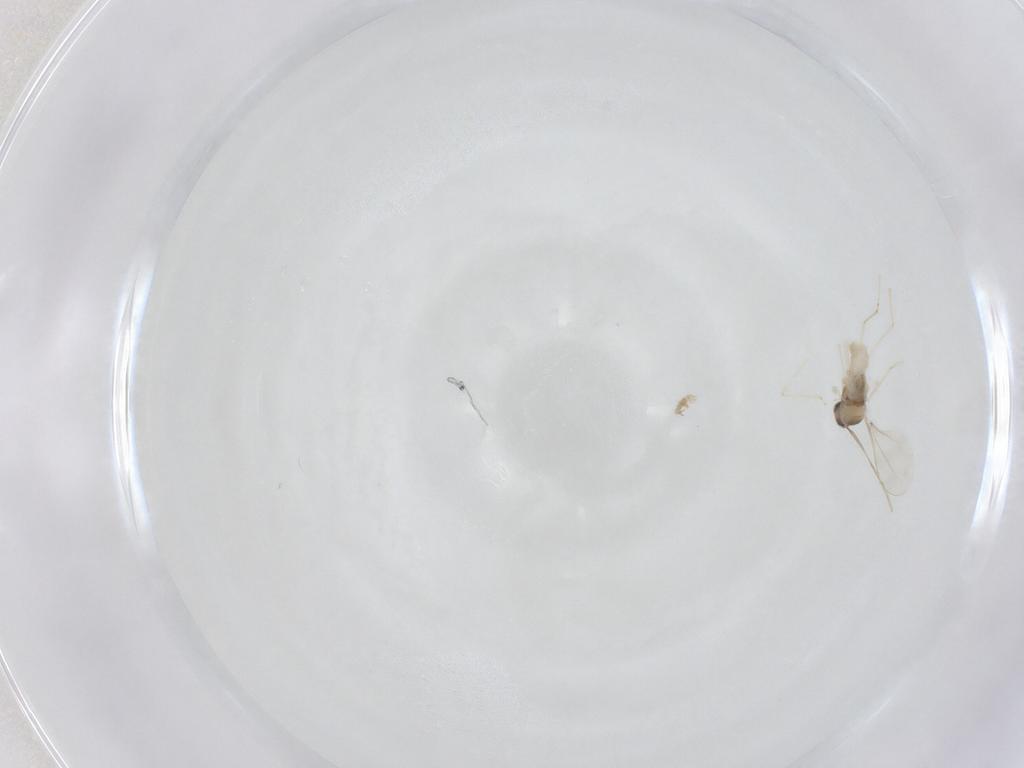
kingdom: Animalia
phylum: Arthropoda
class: Insecta
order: Diptera
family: Cecidomyiidae
